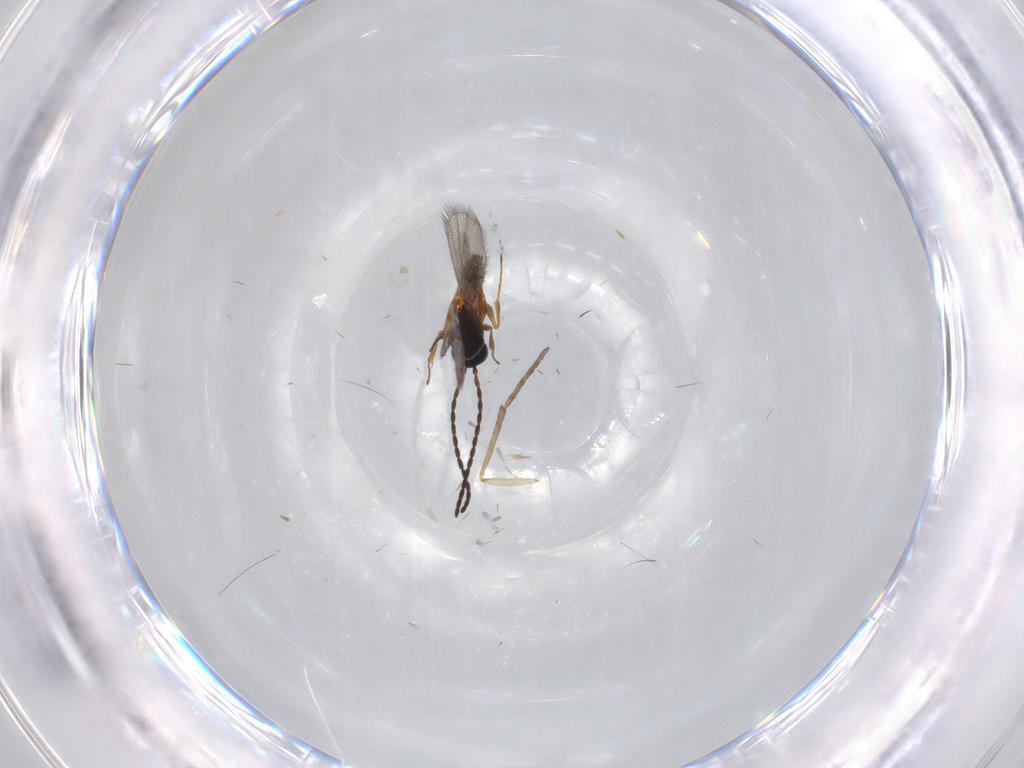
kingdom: Animalia
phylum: Arthropoda
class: Insecta
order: Hymenoptera
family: Figitidae
